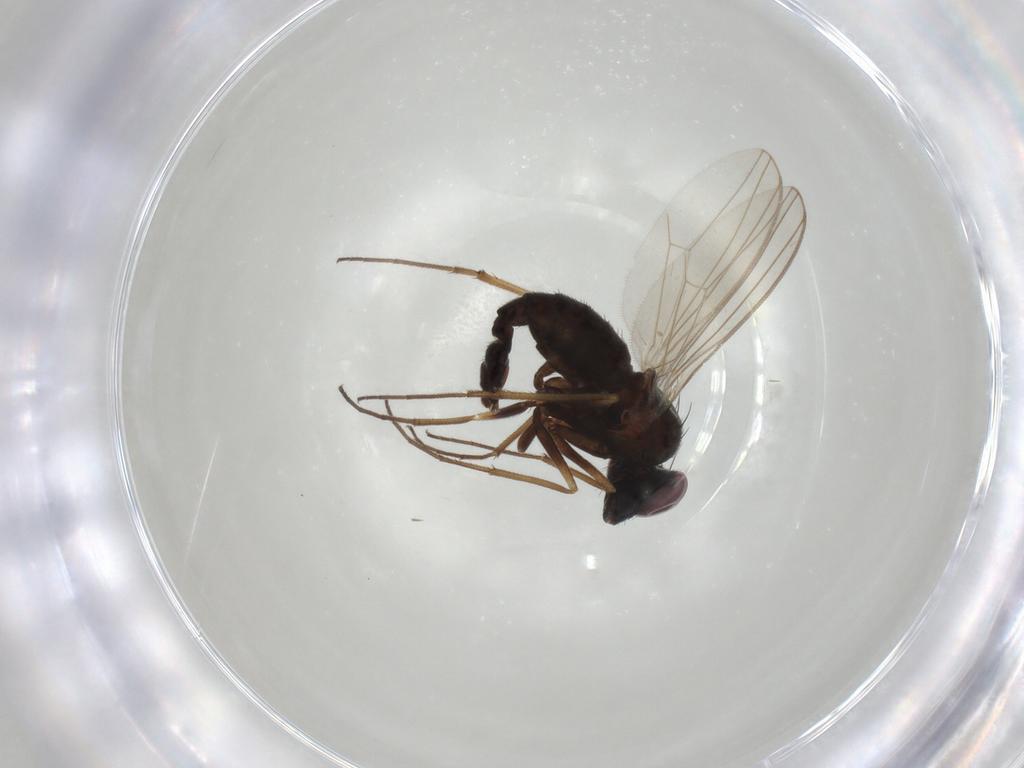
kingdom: Animalia
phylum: Arthropoda
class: Insecta
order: Diptera
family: Dolichopodidae
